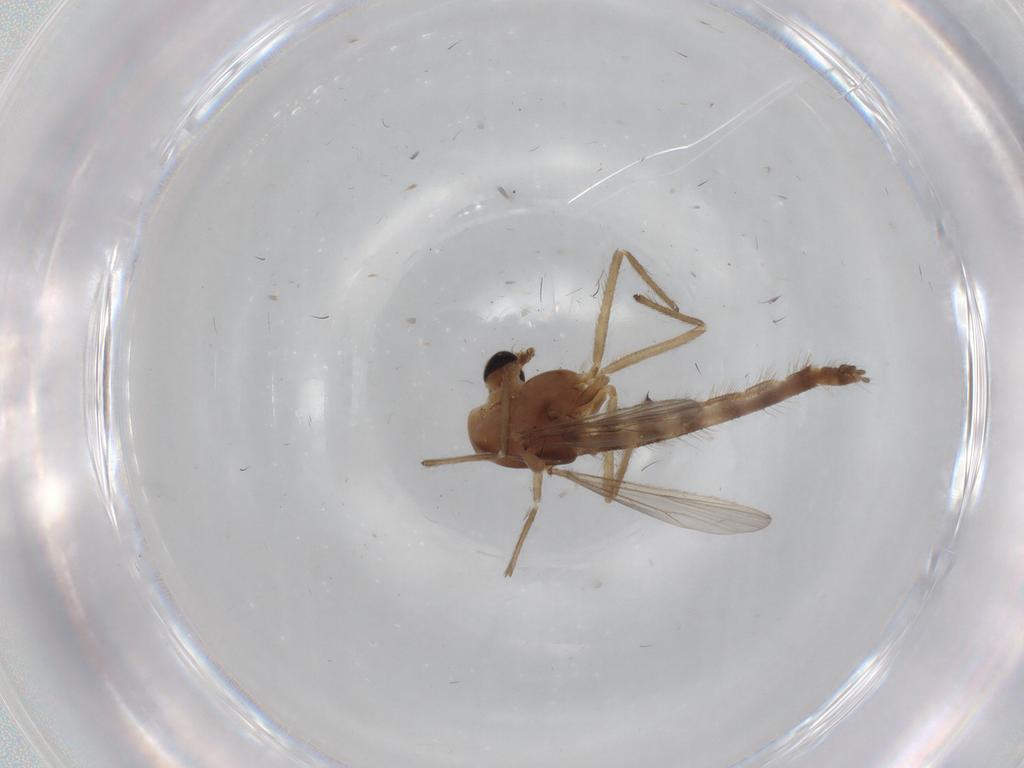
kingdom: Animalia
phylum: Arthropoda
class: Insecta
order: Diptera
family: Chironomidae
